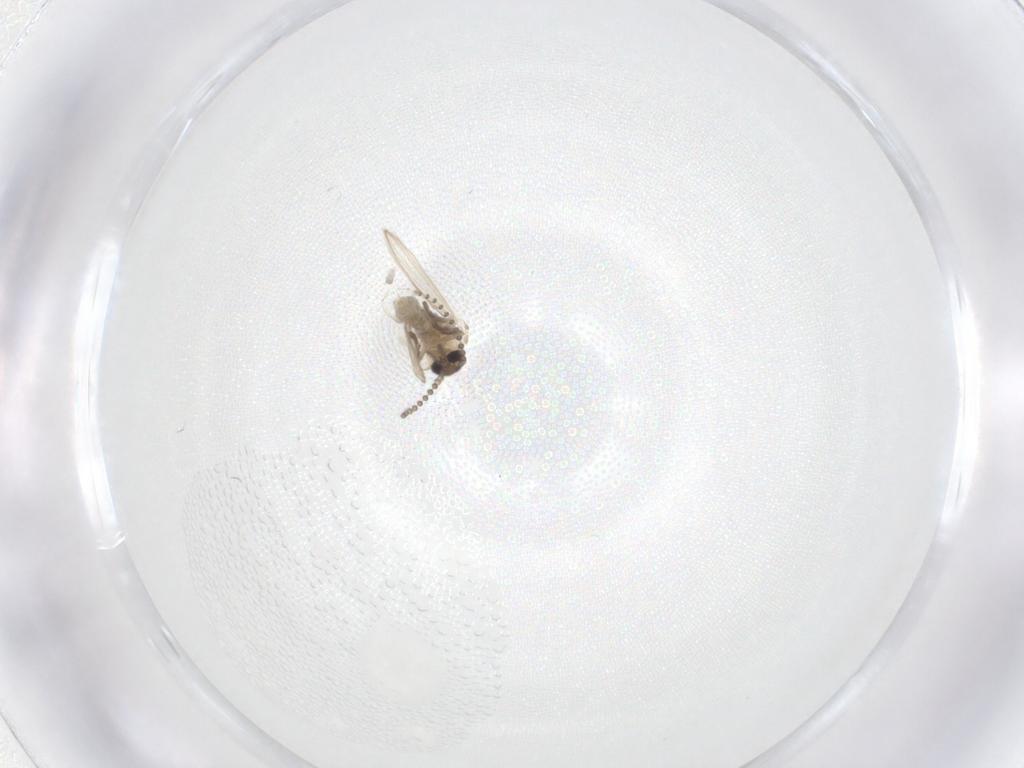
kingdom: Animalia
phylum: Arthropoda
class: Insecta
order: Diptera
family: Psychodidae
